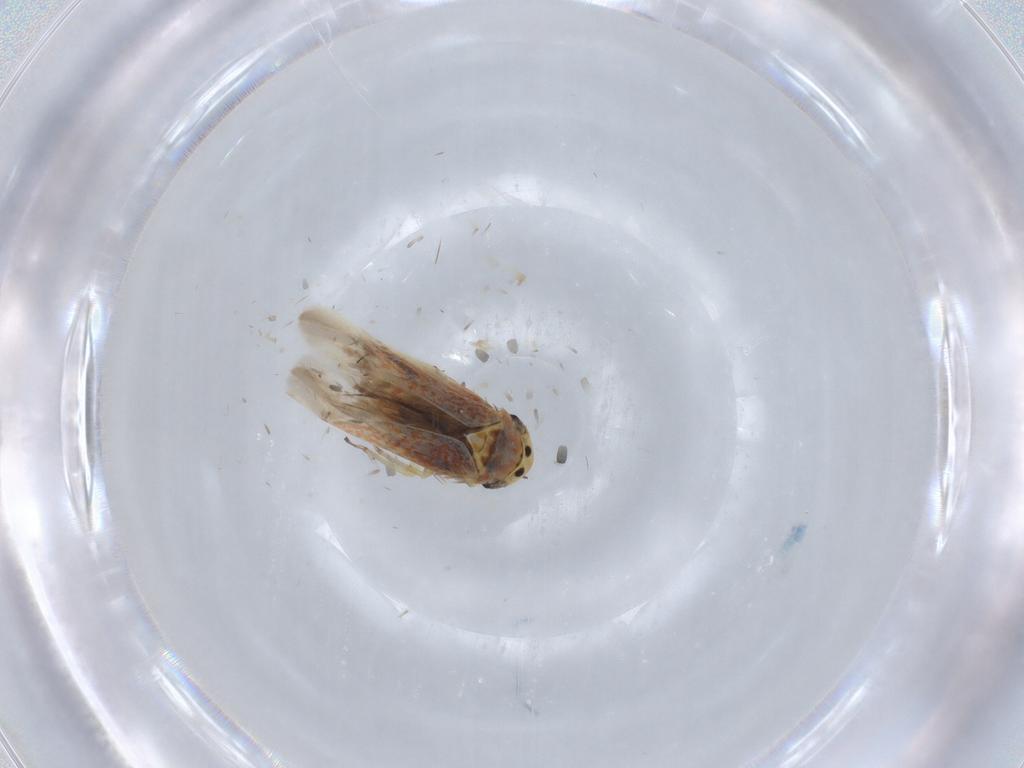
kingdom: Animalia
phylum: Arthropoda
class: Insecta
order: Hemiptera
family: Cicadellidae
